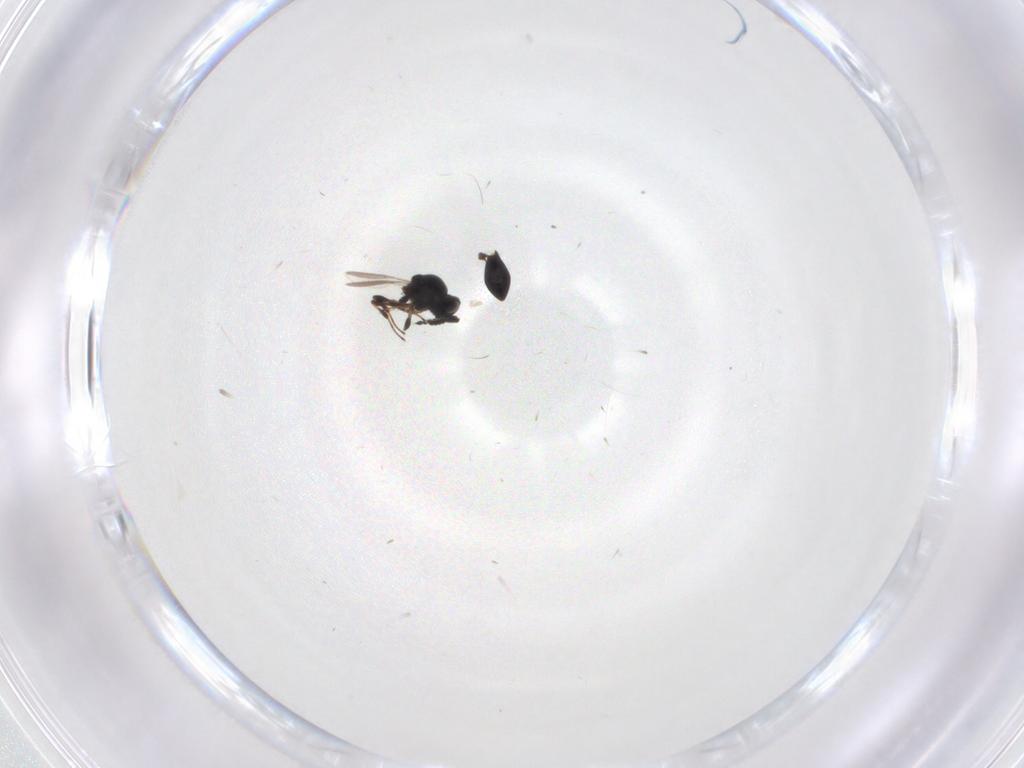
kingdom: Animalia
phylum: Arthropoda
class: Insecta
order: Hymenoptera
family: Platygastridae
